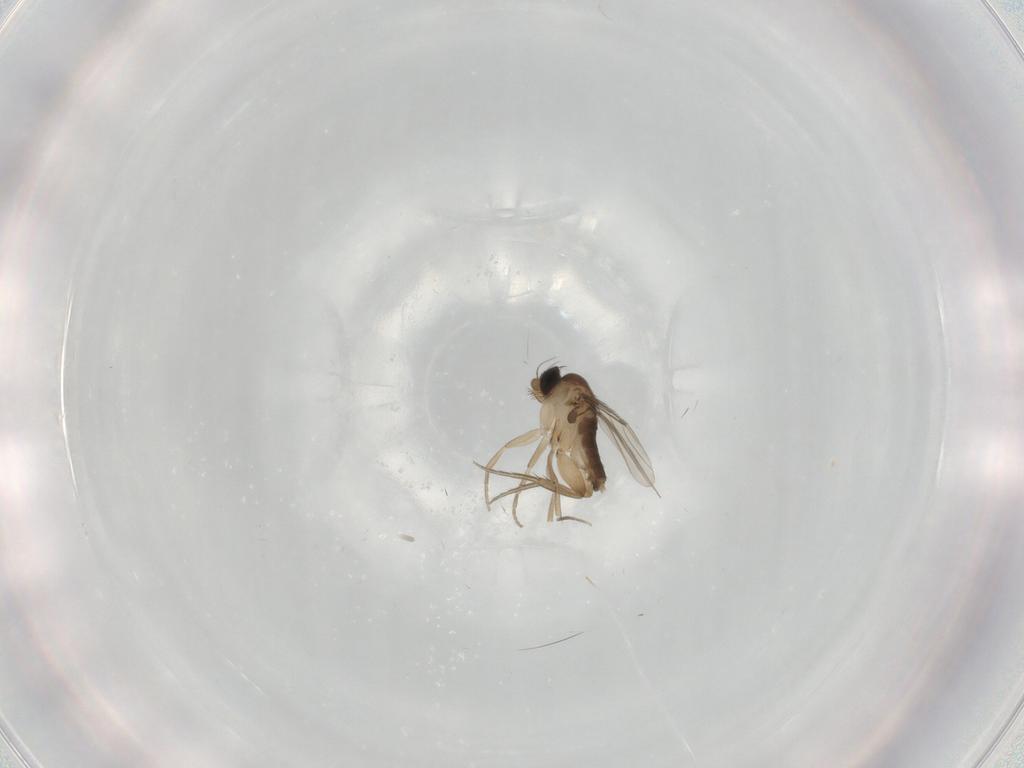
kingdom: Animalia
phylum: Arthropoda
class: Insecta
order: Diptera
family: Phoridae
